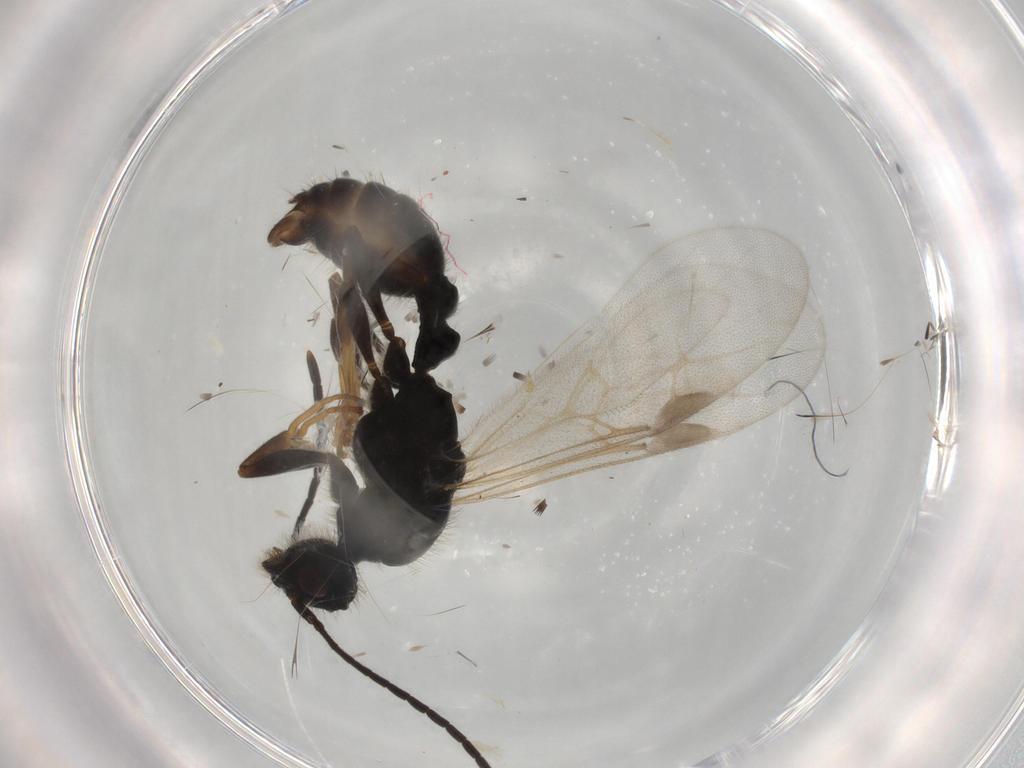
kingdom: Animalia
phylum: Arthropoda
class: Insecta
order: Hymenoptera
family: Formicidae
